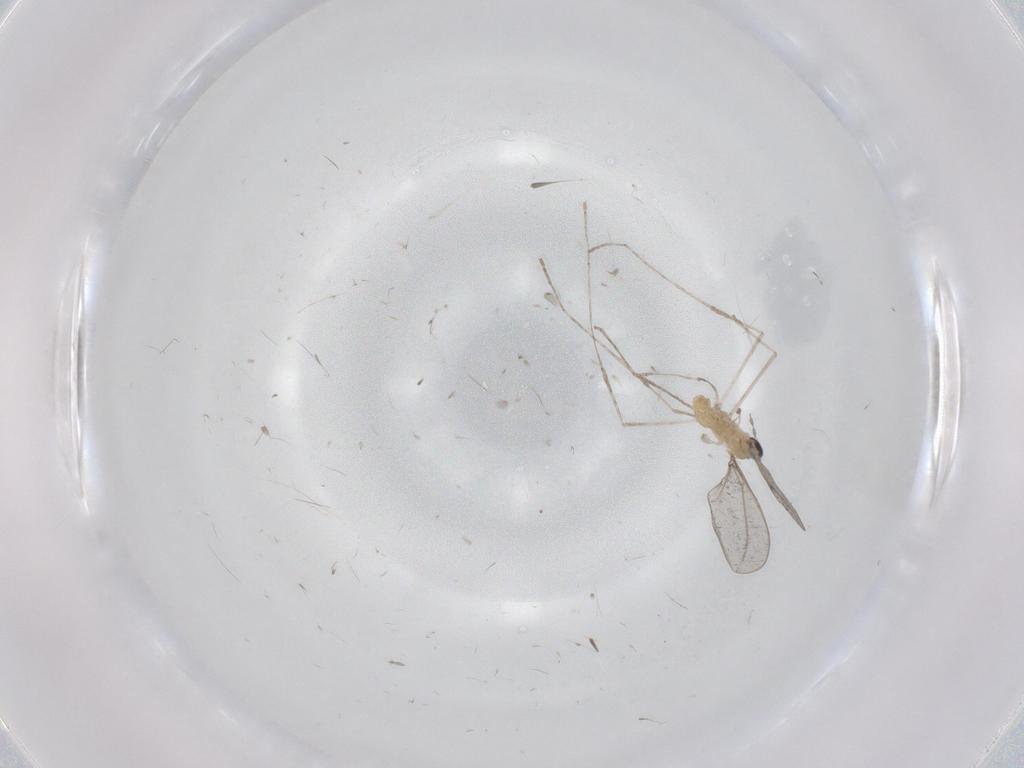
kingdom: Animalia
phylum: Arthropoda
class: Insecta
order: Diptera
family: Cecidomyiidae
